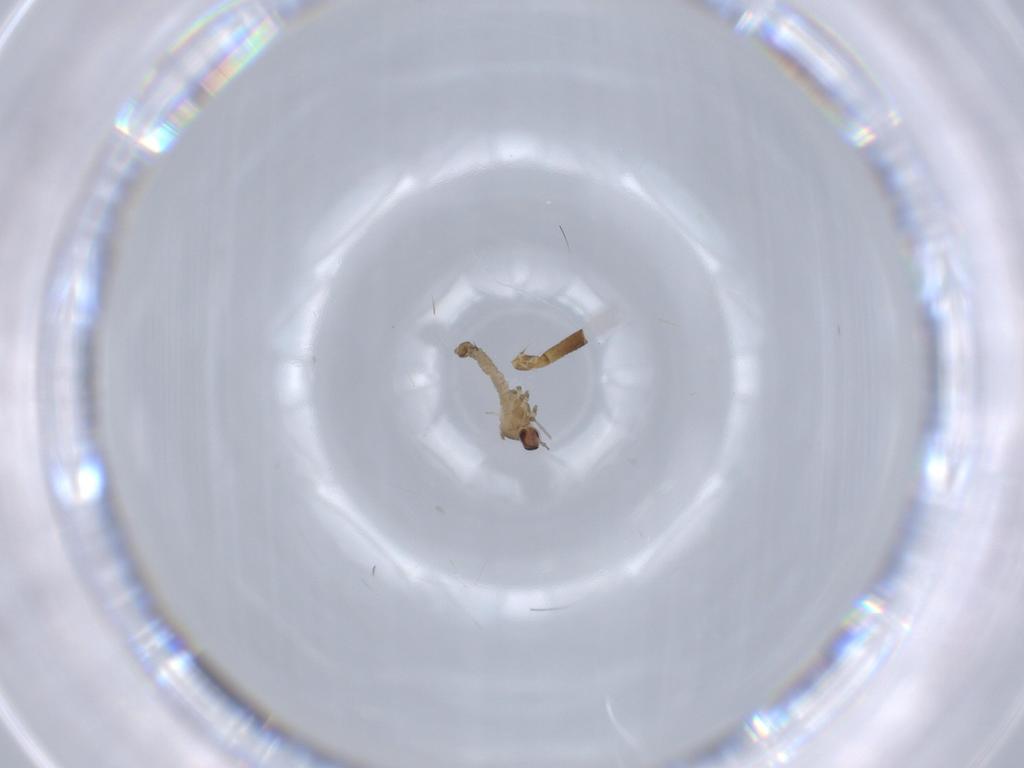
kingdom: Animalia
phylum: Arthropoda
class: Insecta
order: Diptera
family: Cecidomyiidae
